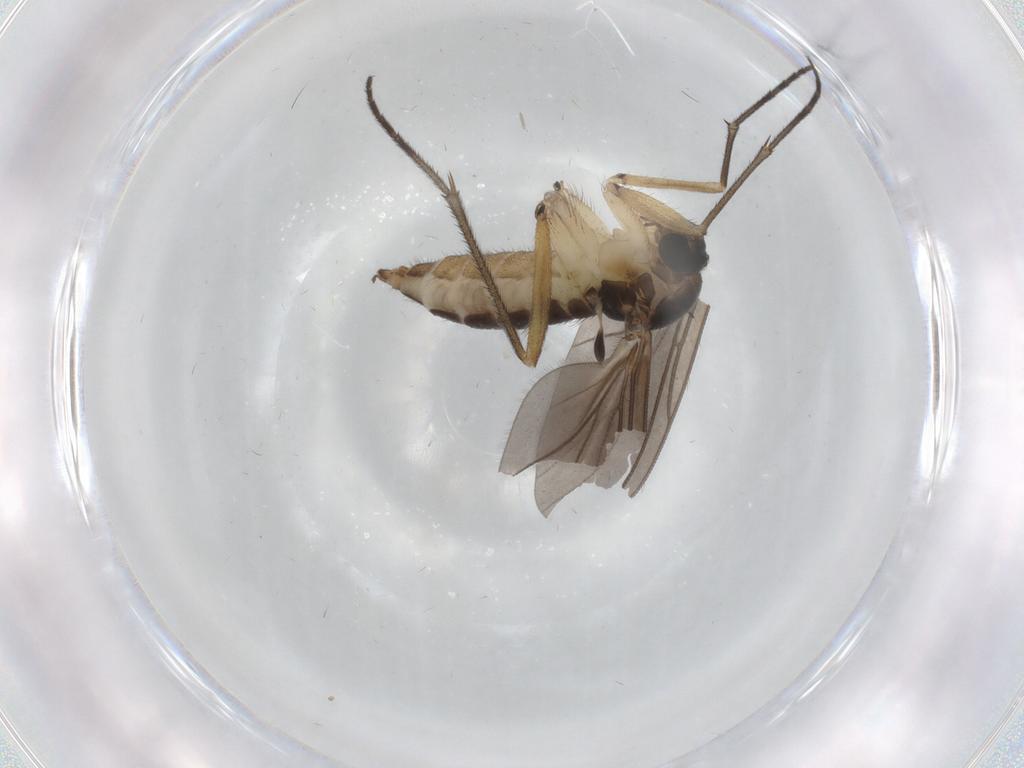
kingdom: Animalia
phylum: Arthropoda
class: Insecta
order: Diptera
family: Sciaridae
